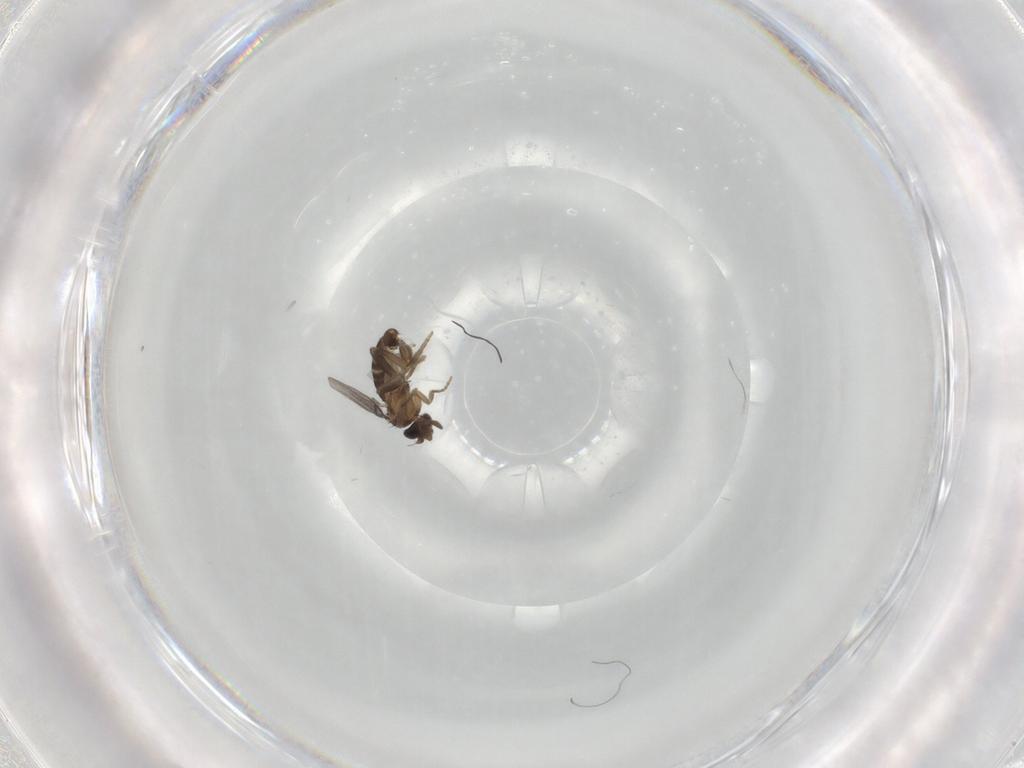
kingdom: Animalia
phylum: Arthropoda
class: Insecta
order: Diptera
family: Phoridae
